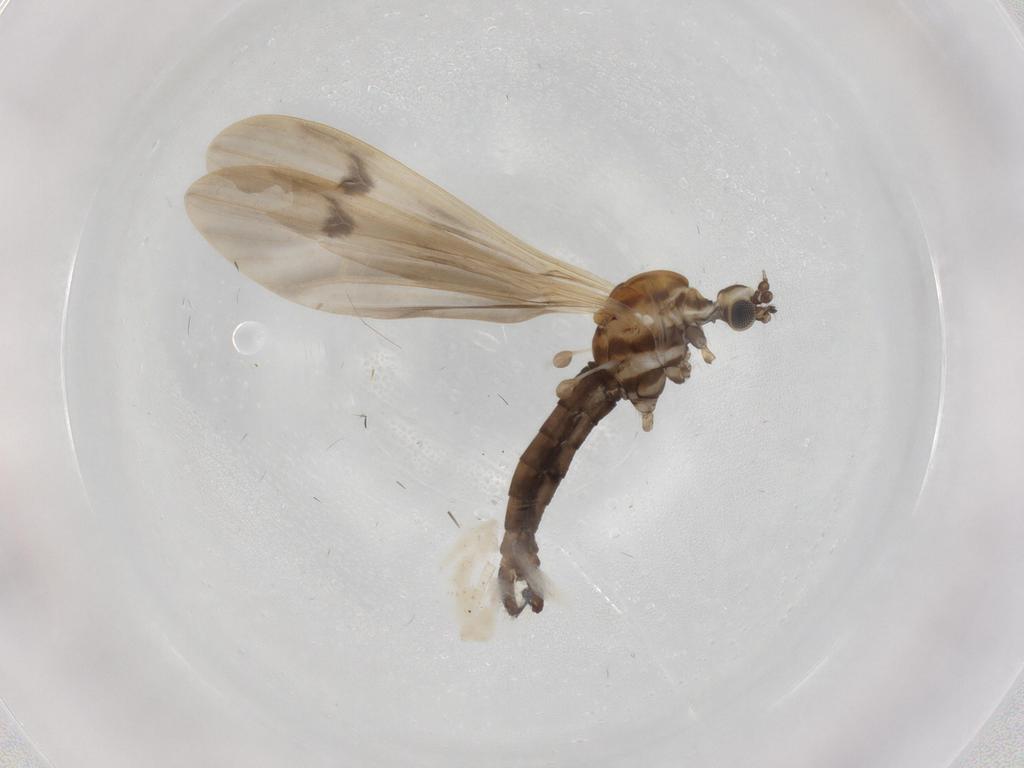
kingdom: Animalia
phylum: Arthropoda
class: Insecta
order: Diptera
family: Limoniidae
